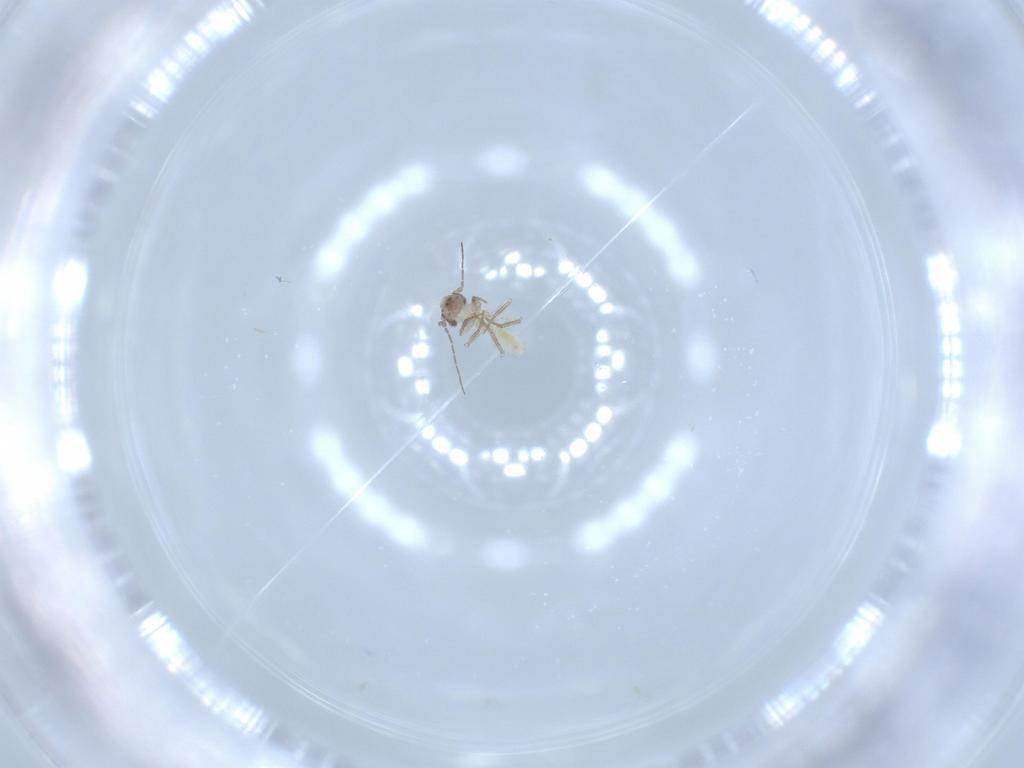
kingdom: Animalia
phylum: Arthropoda
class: Insecta
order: Psocodea
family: Lepidopsocidae
